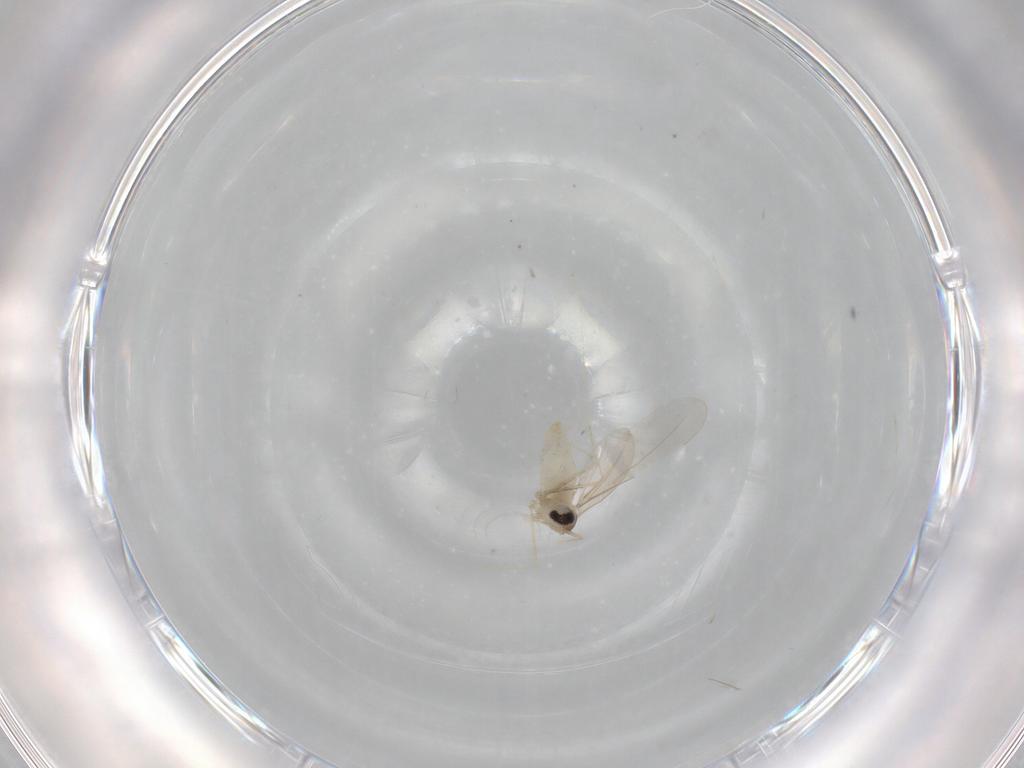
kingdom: Animalia
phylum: Arthropoda
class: Insecta
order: Diptera
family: Cecidomyiidae
